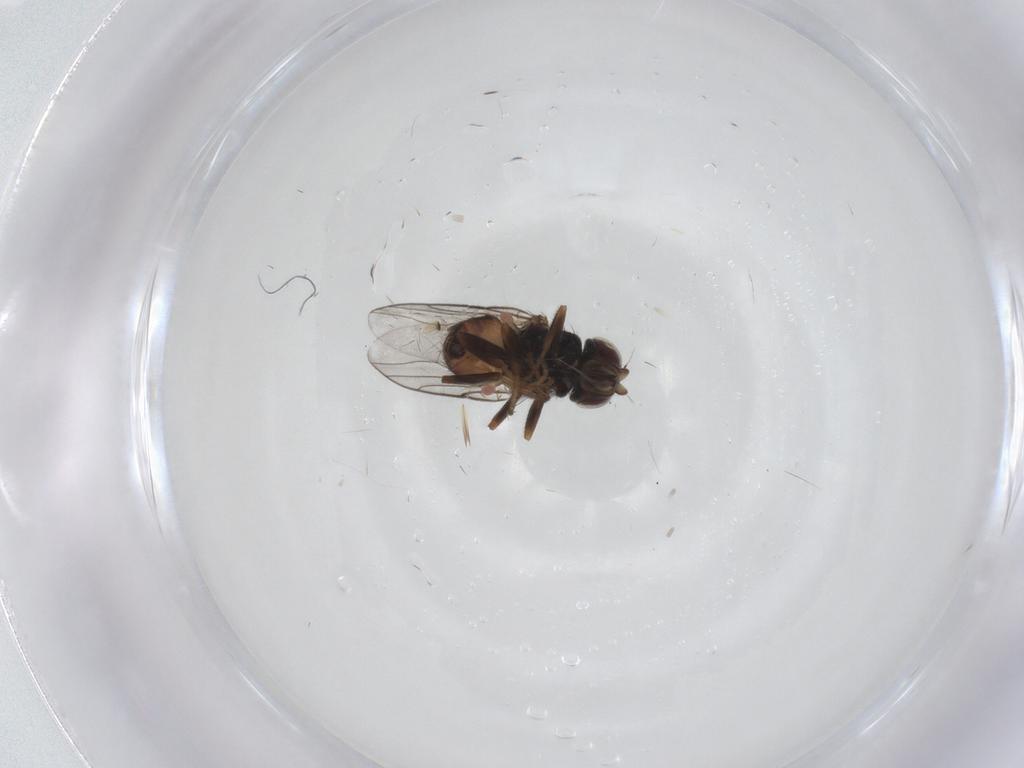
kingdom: Animalia
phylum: Arthropoda
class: Insecta
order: Diptera
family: Chloropidae
